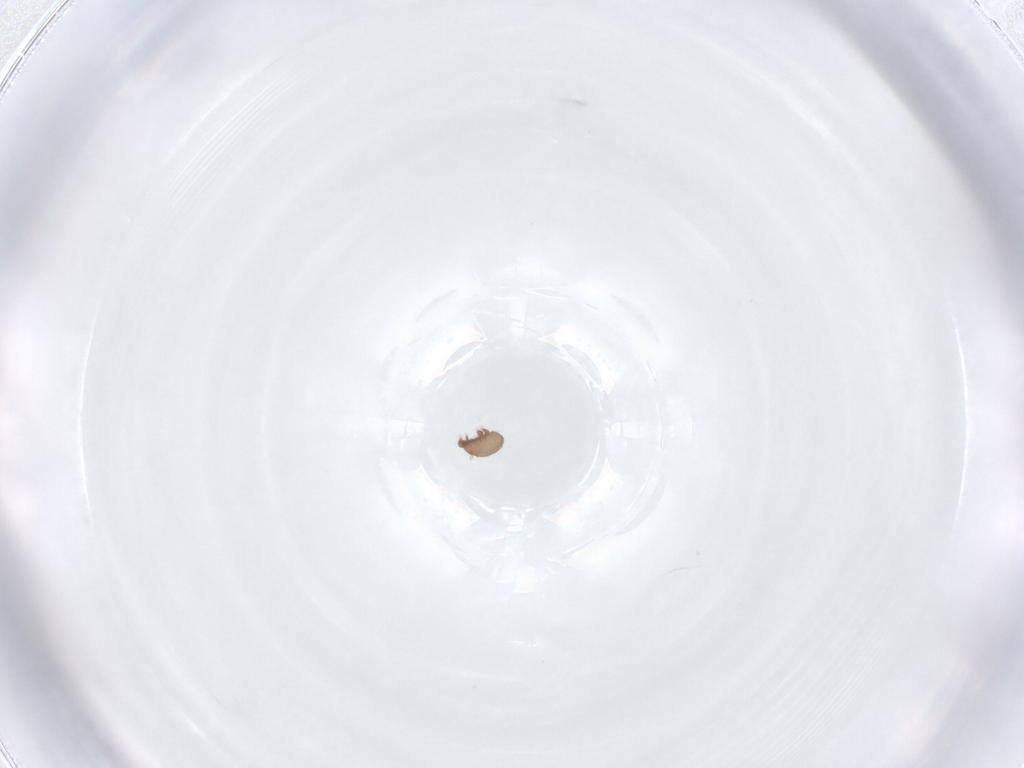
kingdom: Animalia
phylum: Arthropoda
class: Arachnida
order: Sarcoptiformes
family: Achipteriidae
